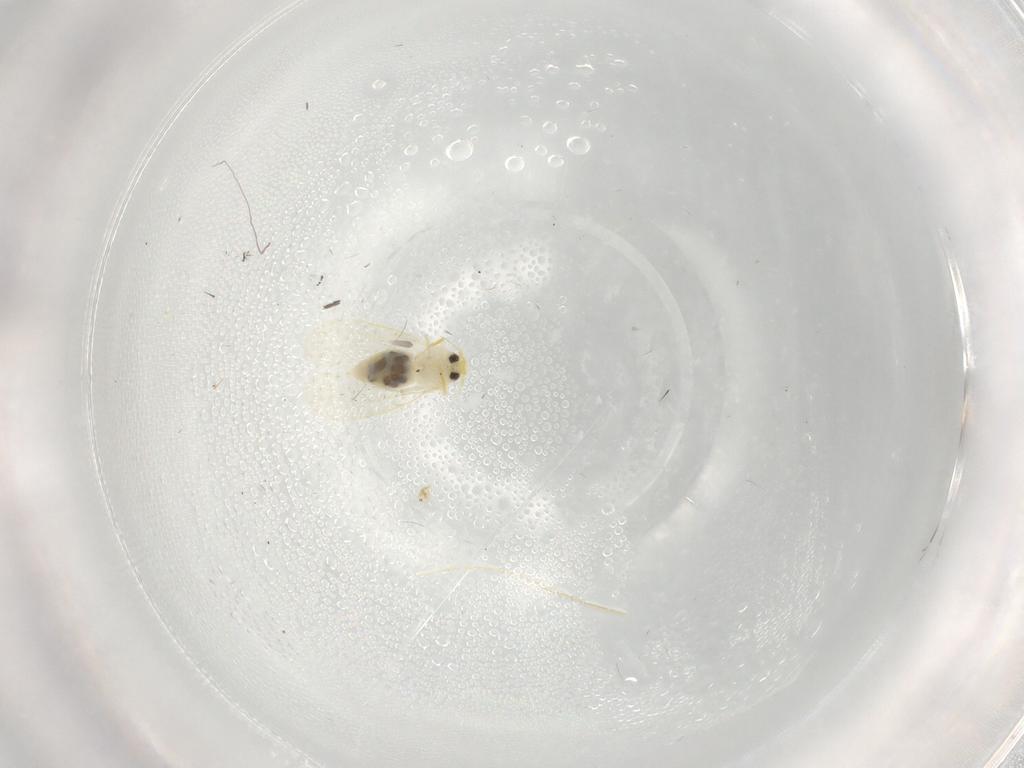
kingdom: Animalia
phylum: Arthropoda
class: Insecta
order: Hemiptera
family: Aleyrodidae
